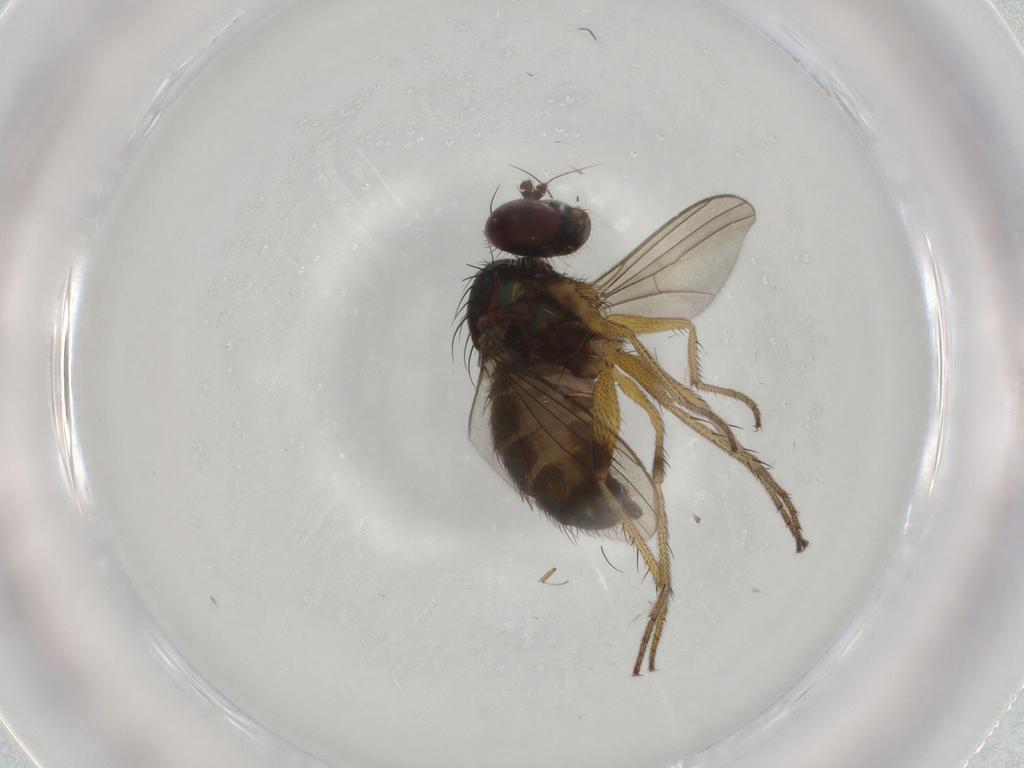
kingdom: Animalia
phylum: Arthropoda
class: Insecta
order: Diptera
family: Dolichopodidae
